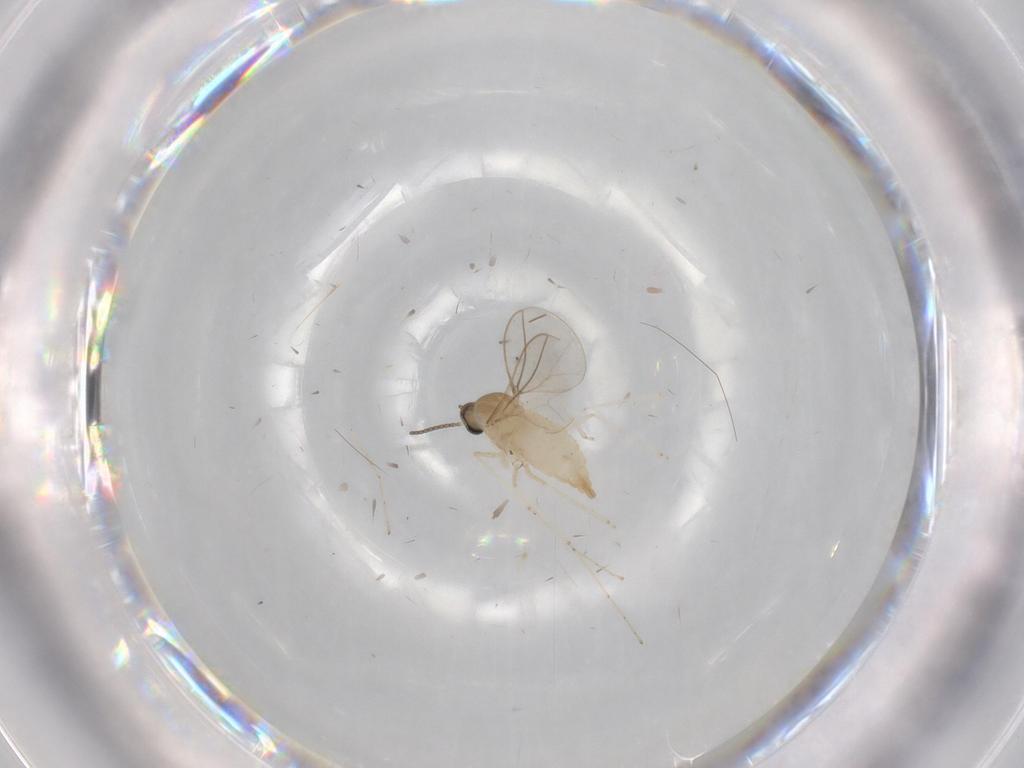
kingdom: Animalia
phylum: Arthropoda
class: Insecta
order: Diptera
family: Cecidomyiidae
